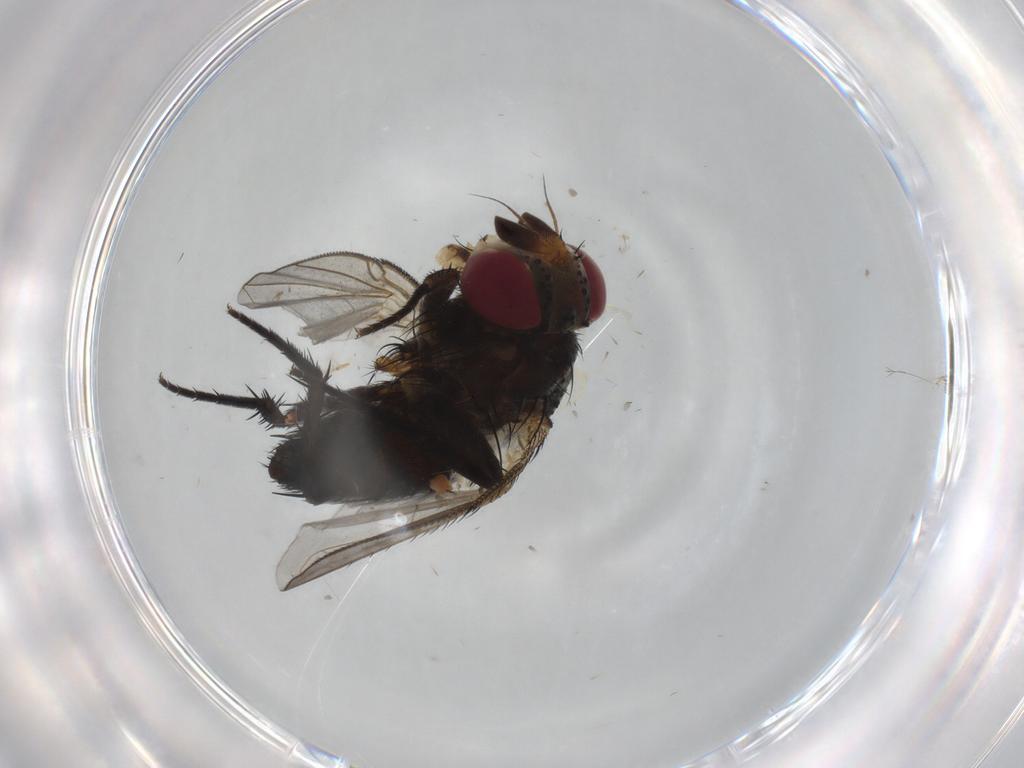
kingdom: Animalia
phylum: Arthropoda
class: Insecta
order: Diptera
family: Tachinidae
